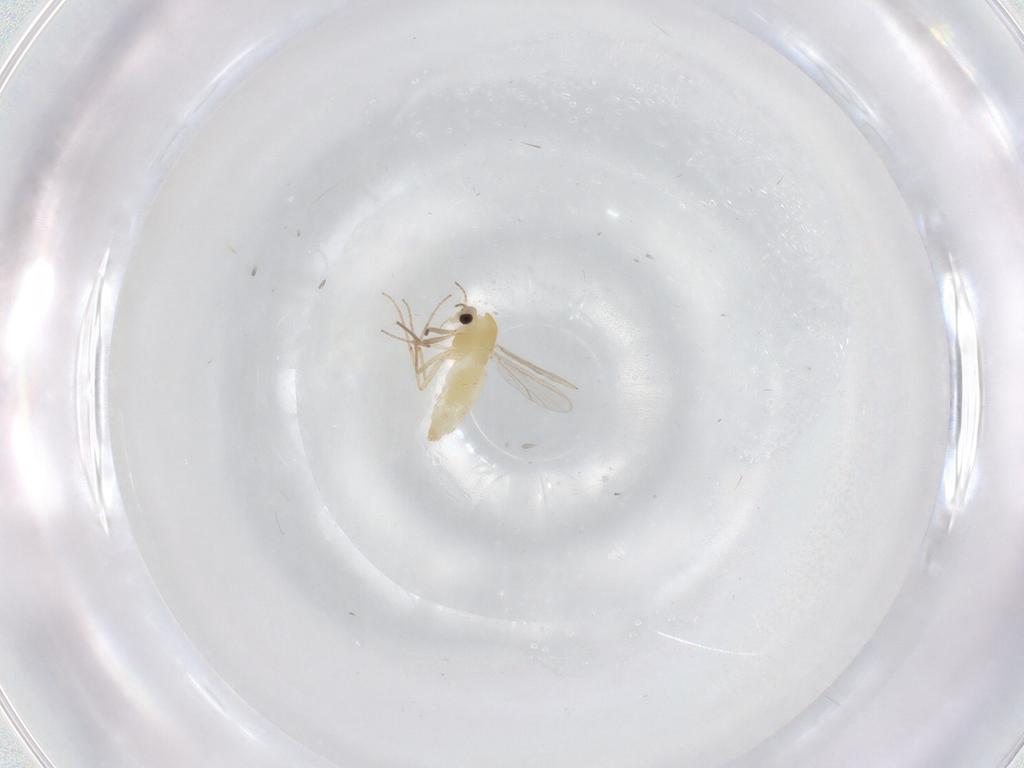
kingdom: Animalia
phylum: Arthropoda
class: Insecta
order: Diptera
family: Chironomidae
